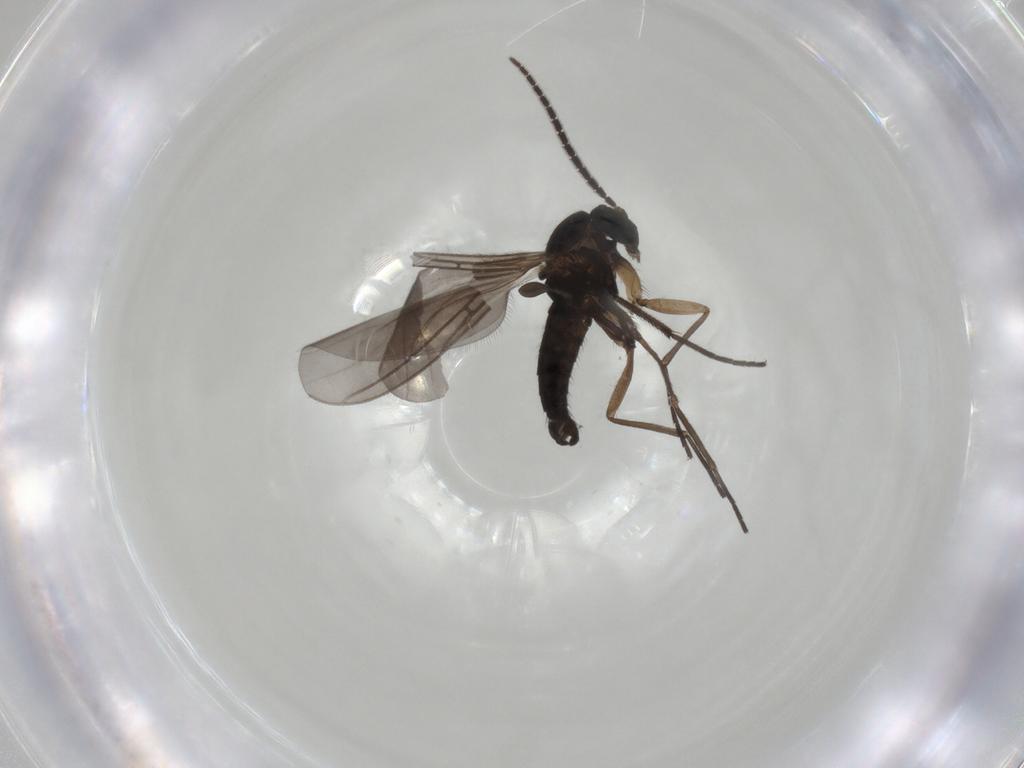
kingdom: Animalia
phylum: Arthropoda
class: Insecta
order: Diptera
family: Sciaridae
